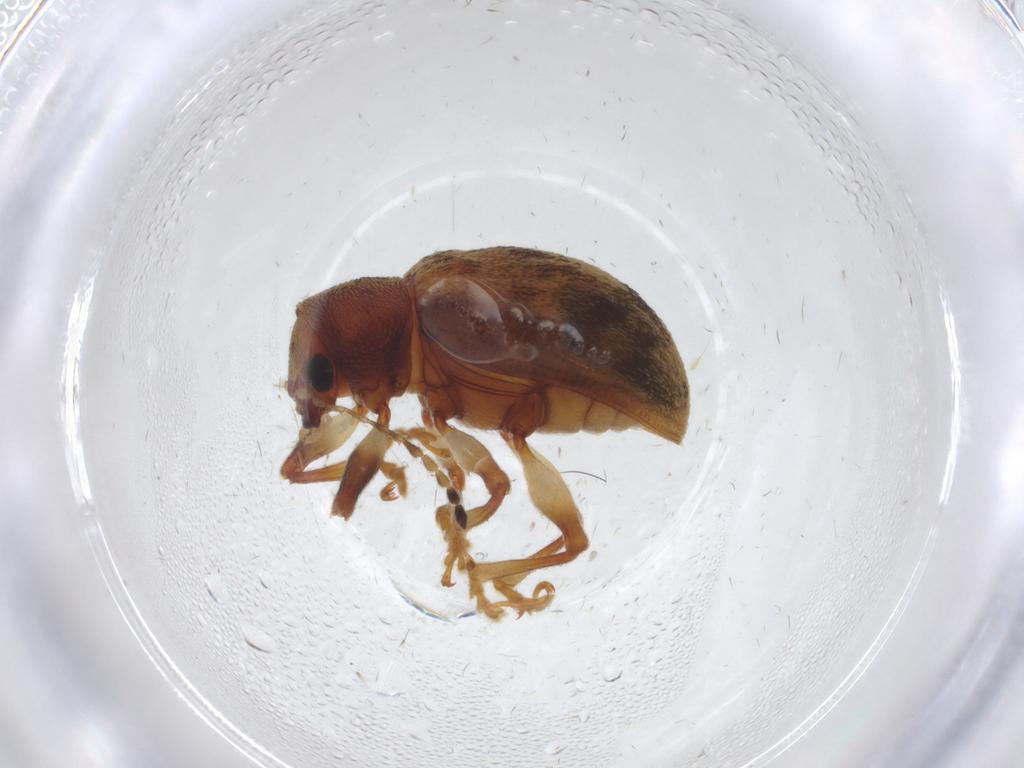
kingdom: Animalia
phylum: Arthropoda
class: Insecta
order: Coleoptera
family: Chrysomelidae
